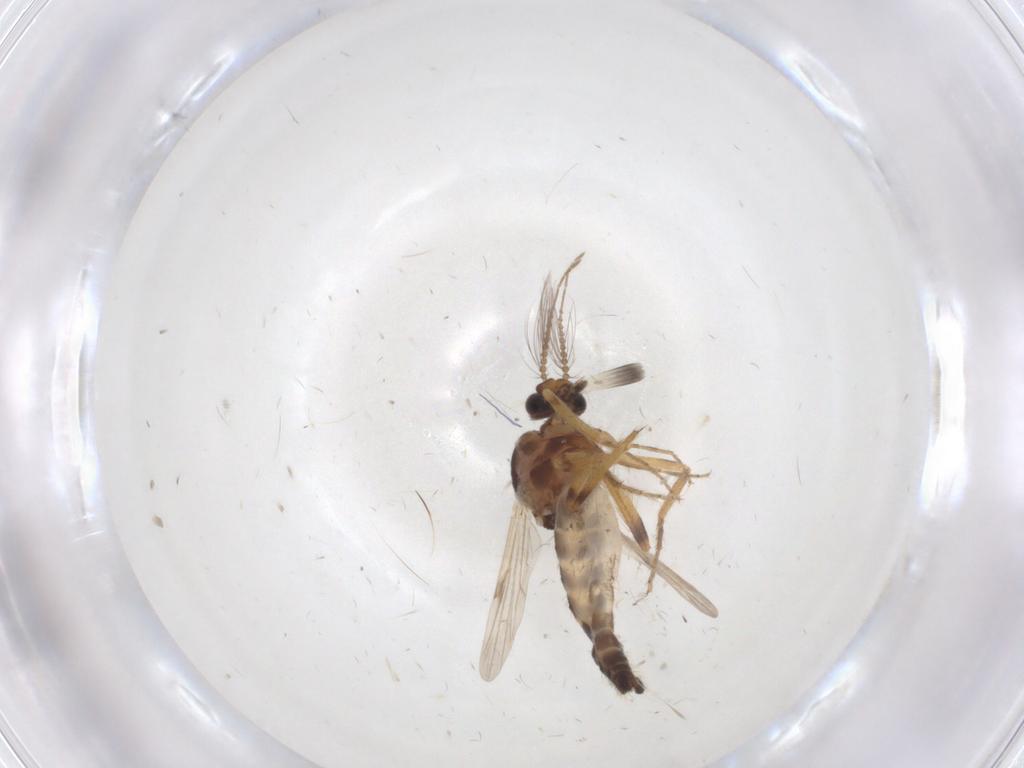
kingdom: Animalia
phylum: Arthropoda
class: Insecta
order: Diptera
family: Ceratopogonidae
